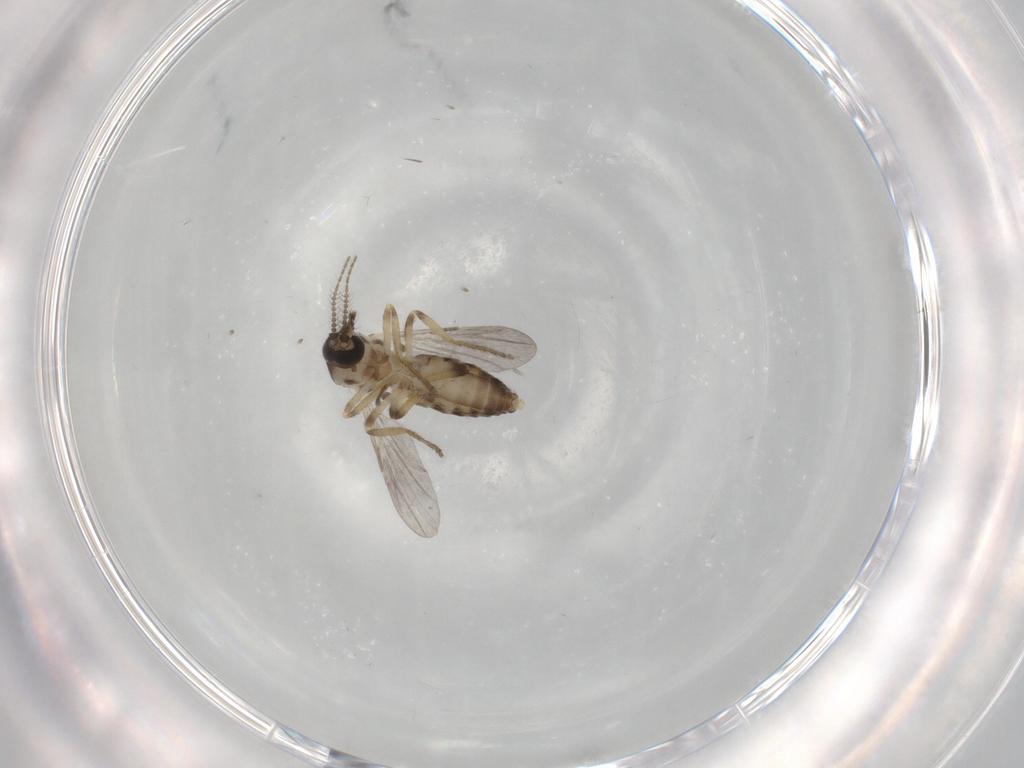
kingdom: Animalia
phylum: Arthropoda
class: Insecta
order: Diptera
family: Ceratopogonidae
